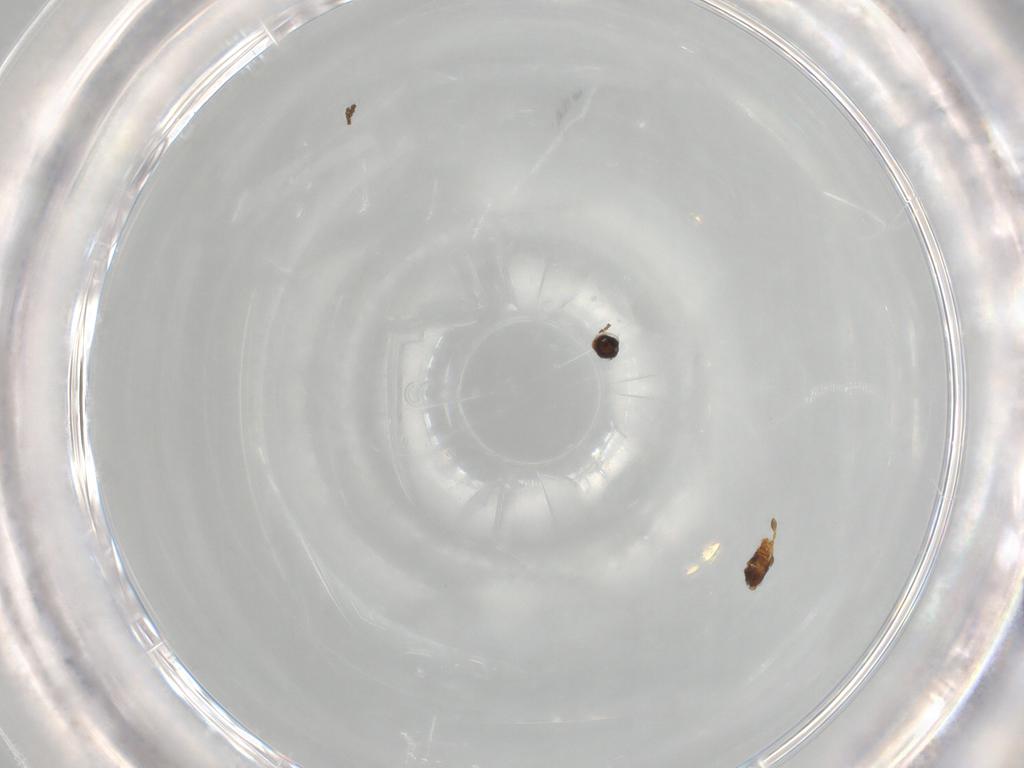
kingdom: Animalia
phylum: Arthropoda
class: Insecta
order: Hymenoptera
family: Diapriidae
